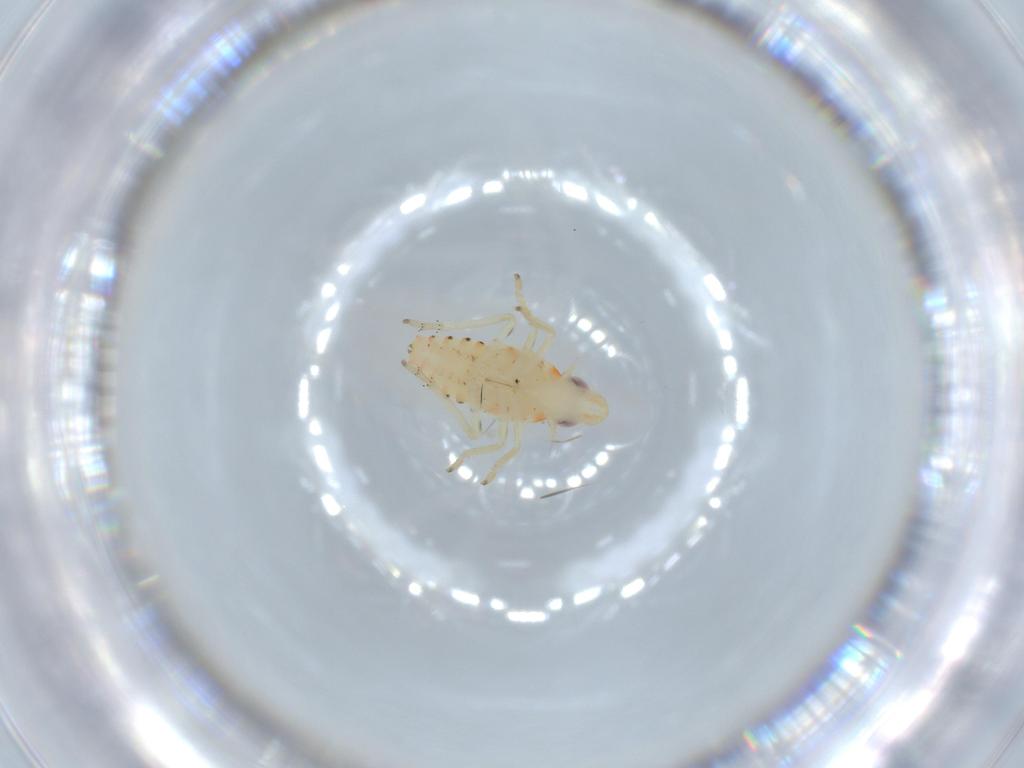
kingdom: Animalia
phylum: Arthropoda
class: Insecta
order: Hemiptera
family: Tropiduchidae
